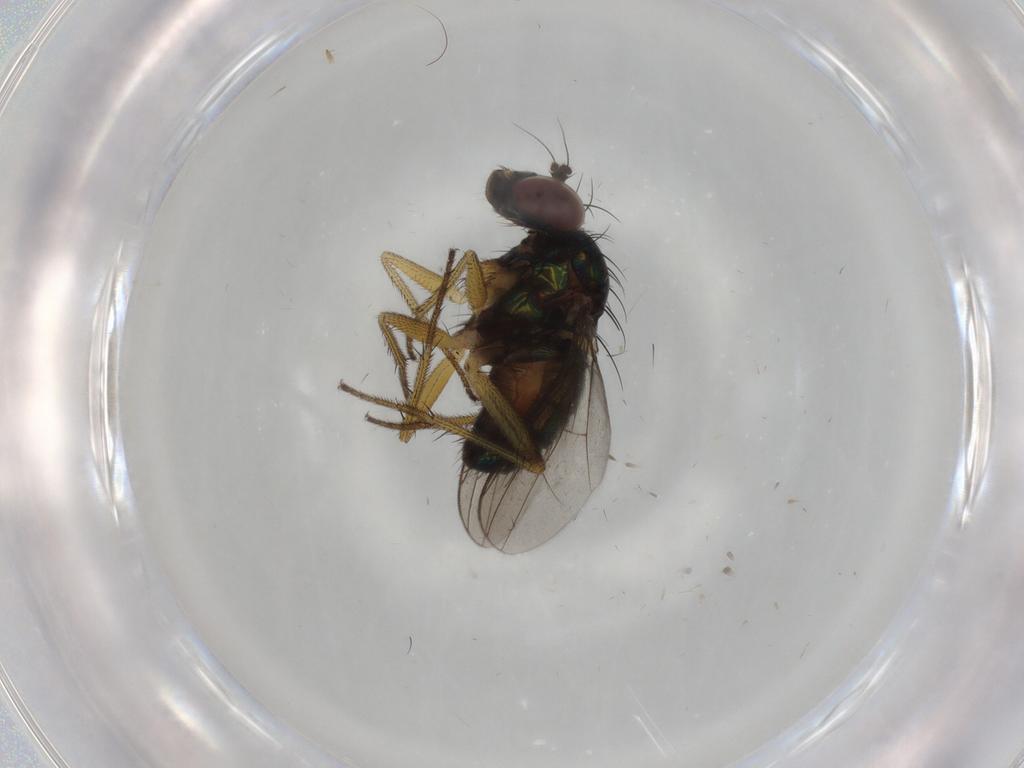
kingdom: Animalia
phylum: Arthropoda
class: Insecta
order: Diptera
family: Dolichopodidae
